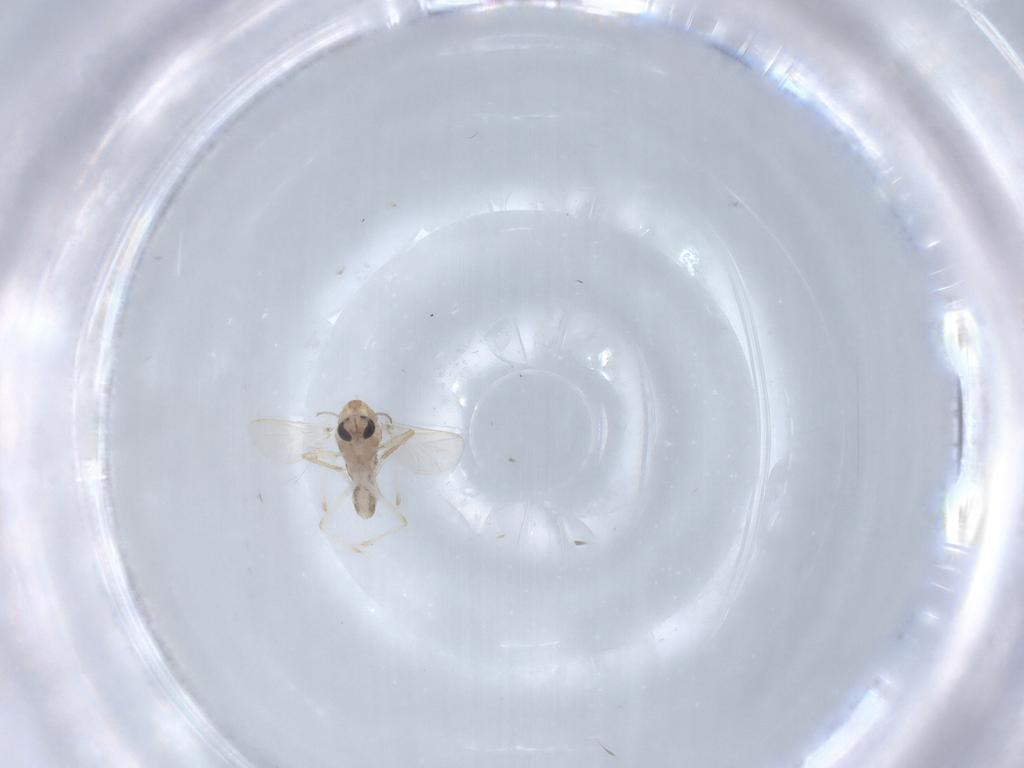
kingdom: Animalia
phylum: Arthropoda
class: Insecta
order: Diptera
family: Chironomidae
